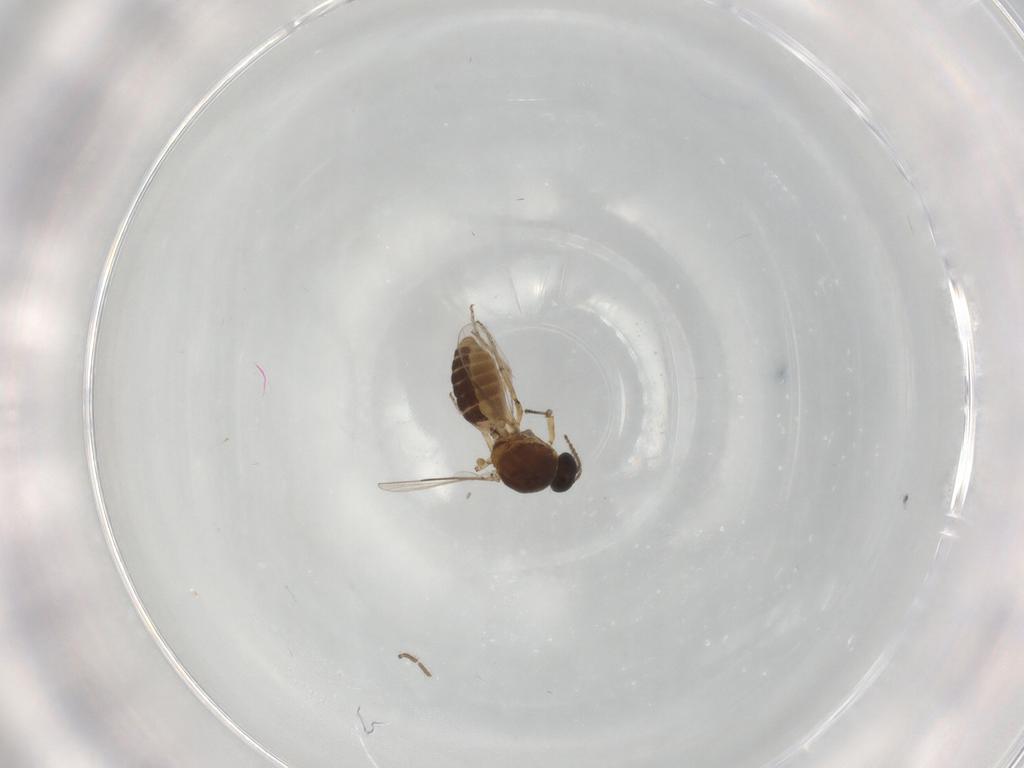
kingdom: Animalia
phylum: Arthropoda
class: Insecta
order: Diptera
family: Ceratopogonidae
